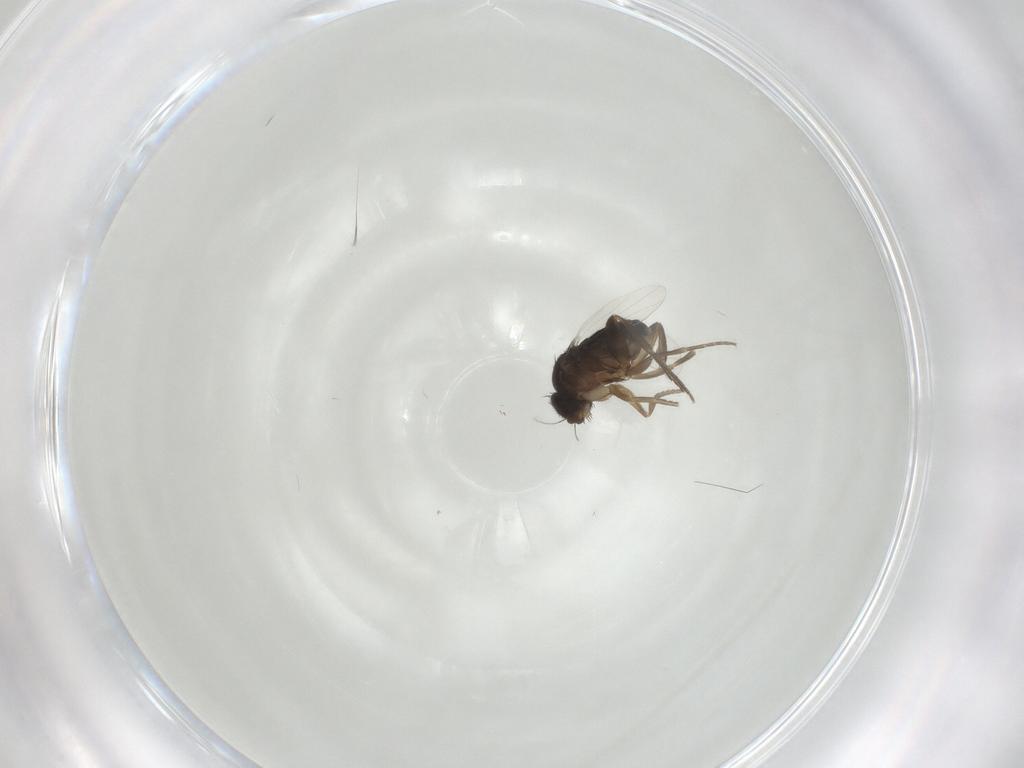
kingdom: Animalia
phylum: Arthropoda
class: Insecta
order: Diptera
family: Phoridae
